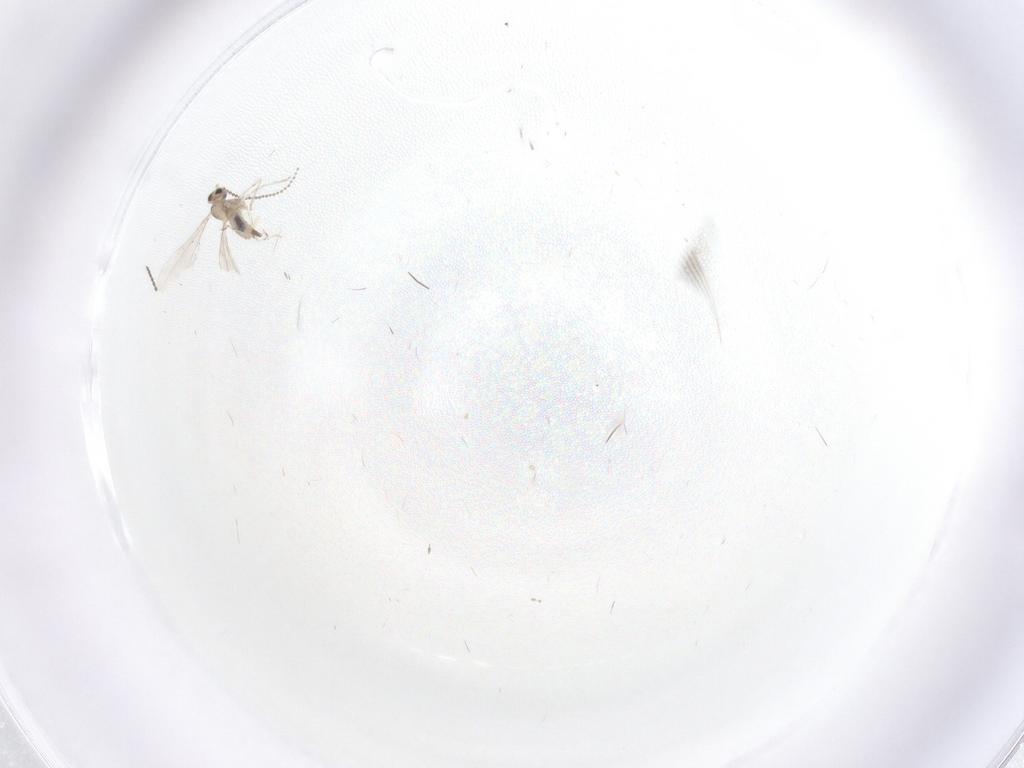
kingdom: Animalia
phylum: Arthropoda
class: Insecta
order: Diptera
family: Cecidomyiidae
